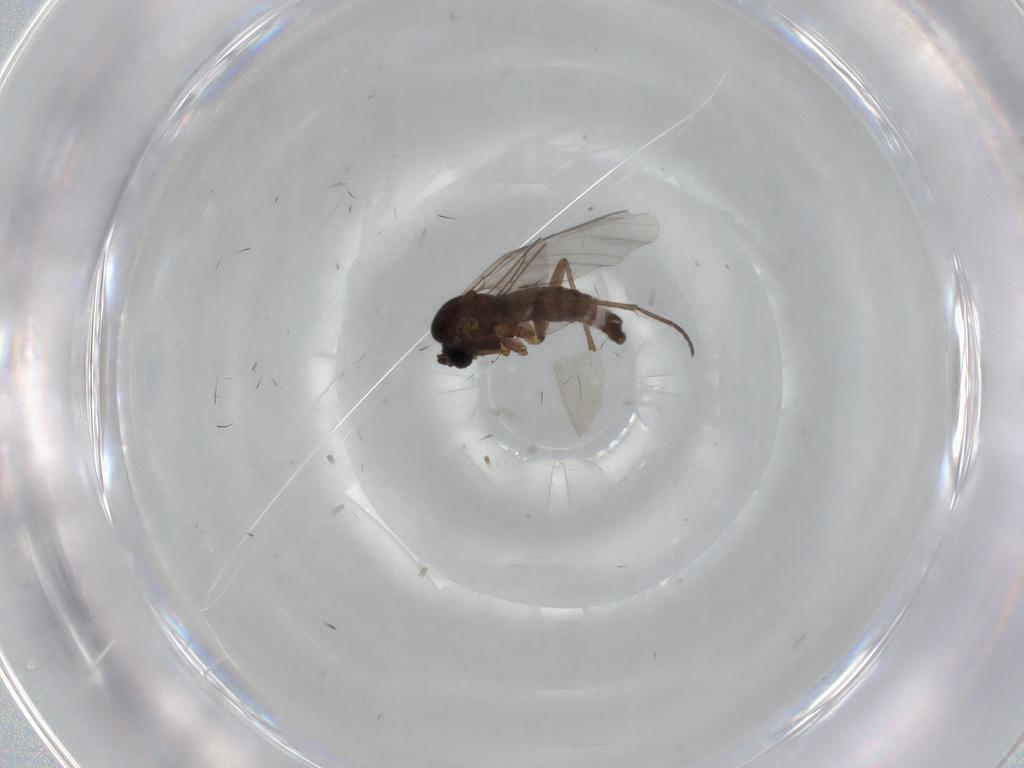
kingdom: Animalia
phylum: Arthropoda
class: Insecta
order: Diptera
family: Sciaridae
